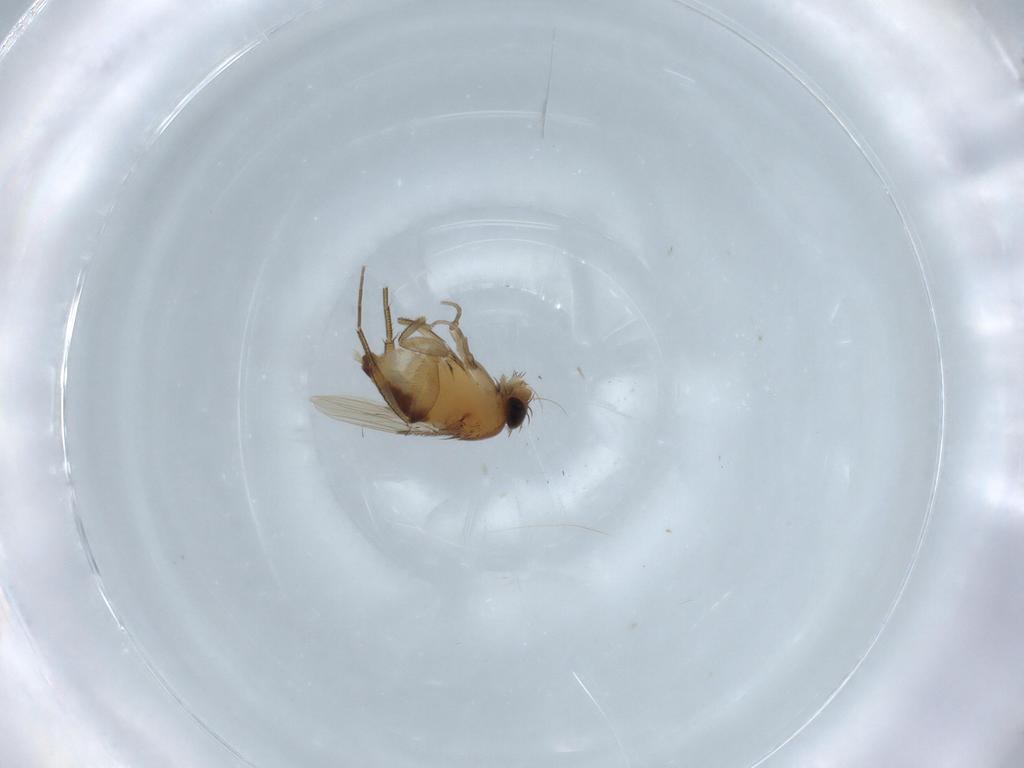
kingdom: Animalia
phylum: Arthropoda
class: Insecta
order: Diptera
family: Phoridae
